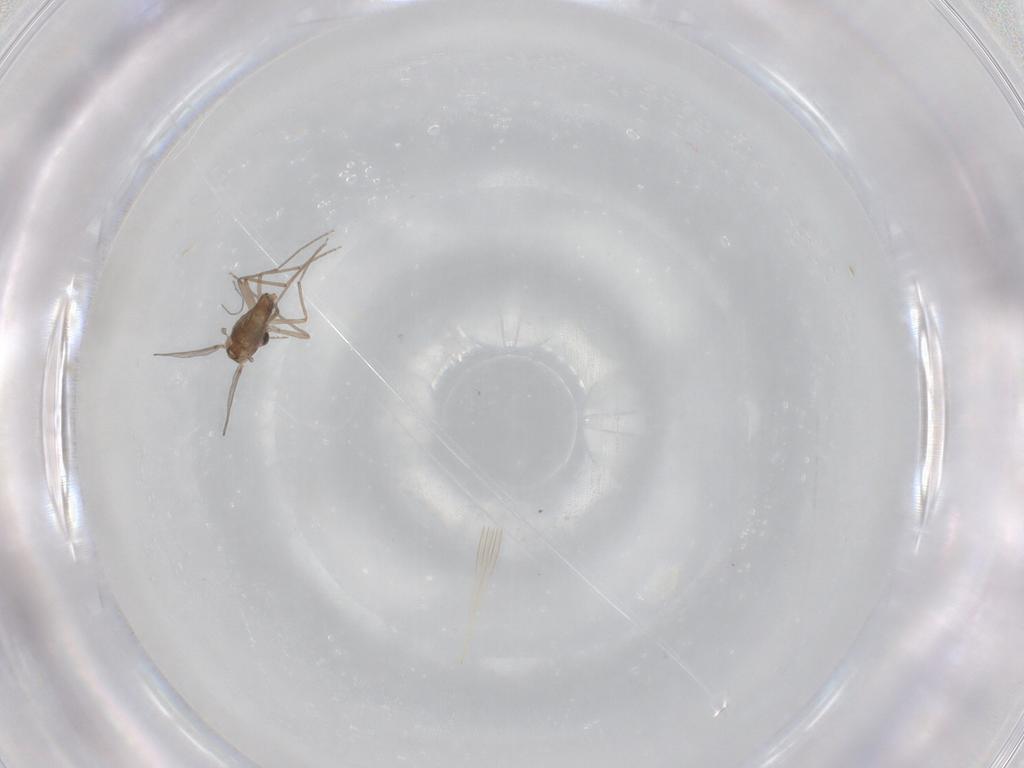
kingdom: Animalia
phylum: Arthropoda
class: Insecta
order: Diptera
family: Chironomidae
